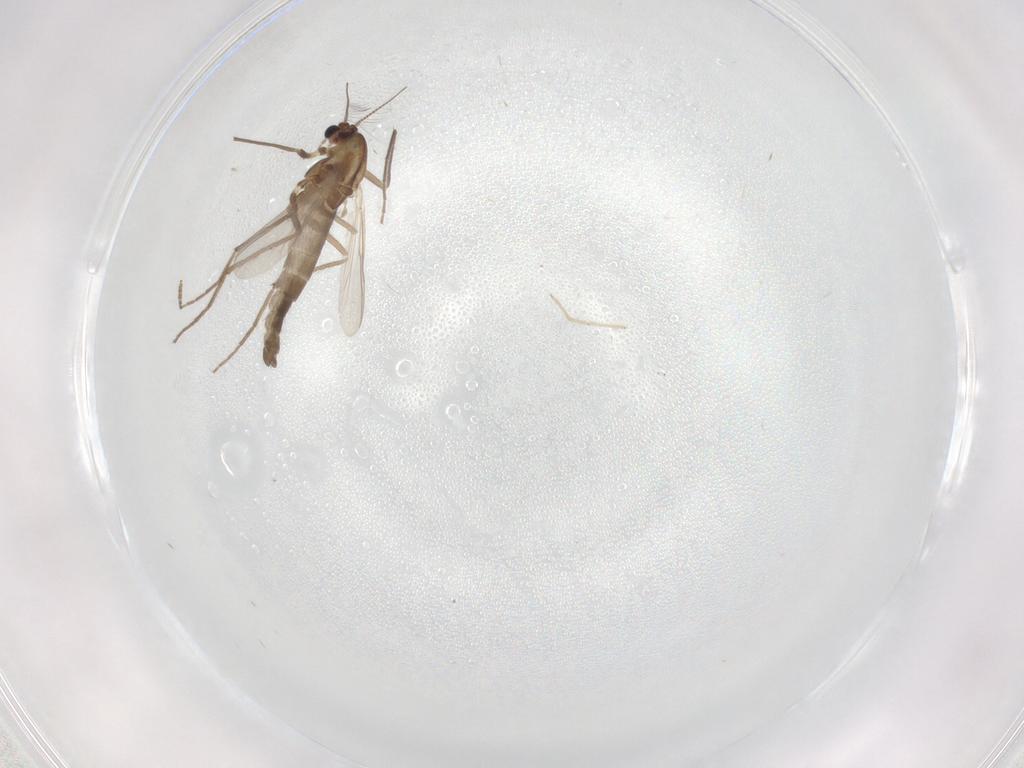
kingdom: Animalia
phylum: Arthropoda
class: Insecta
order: Diptera
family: Chironomidae
